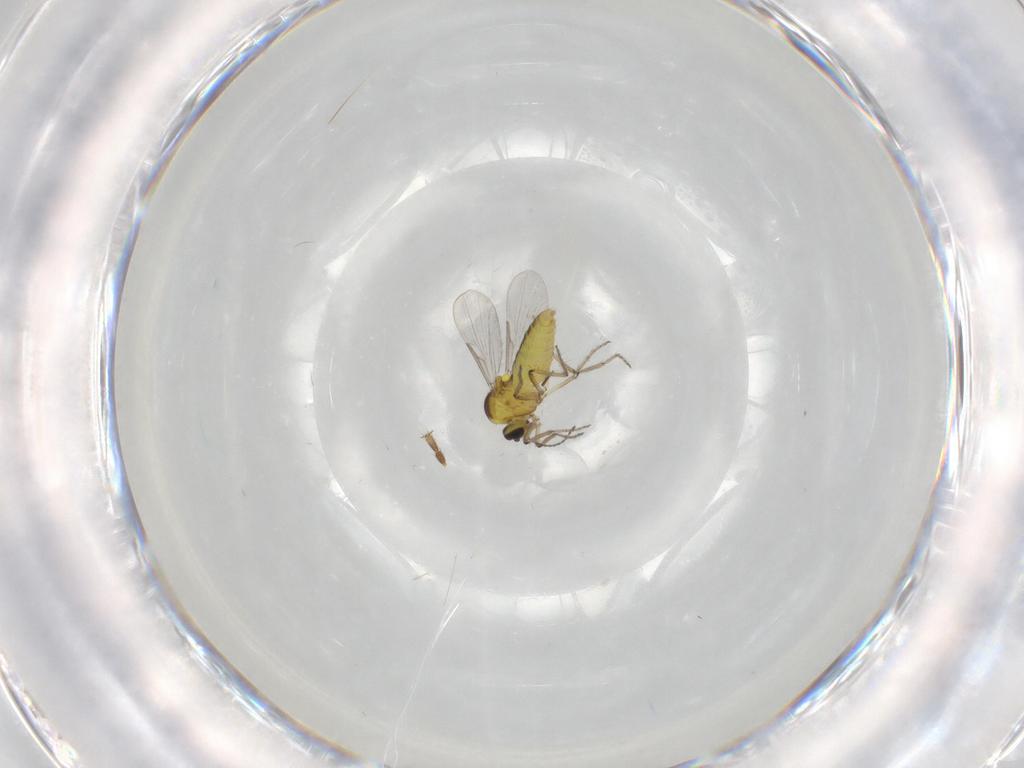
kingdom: Animalia
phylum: Arthropoda
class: Insecta
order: Diptera
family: Ceratopogonidae
